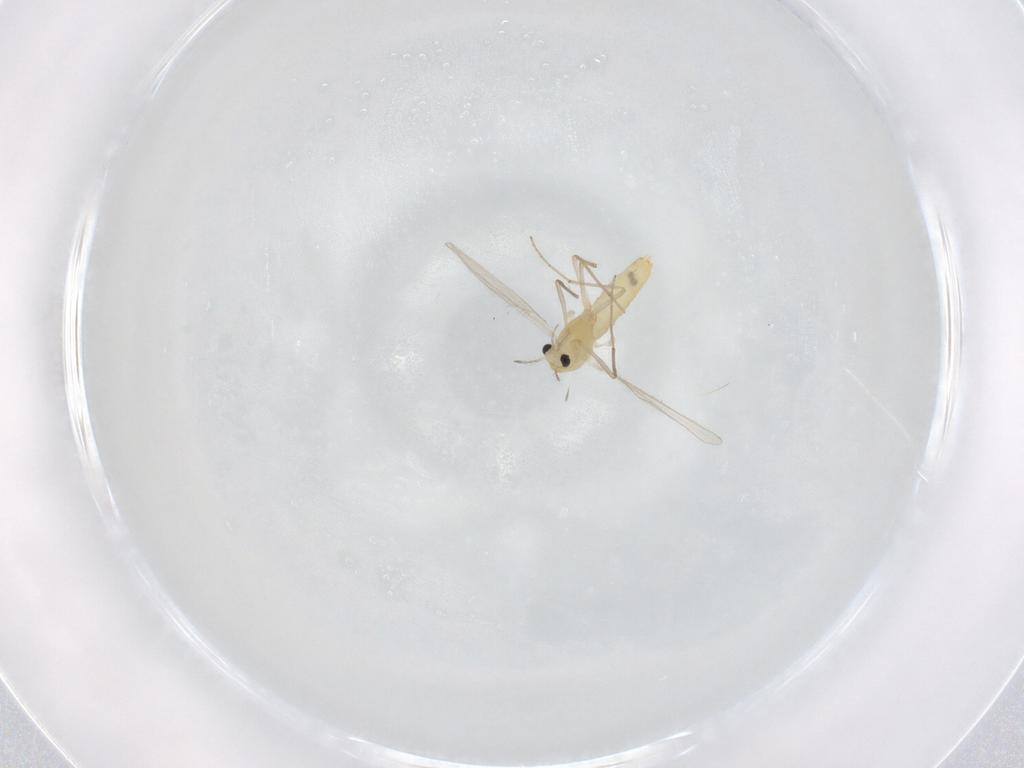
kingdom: Animalia
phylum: Arthropoda
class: Insecta
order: Diptera
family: Chironomidae
